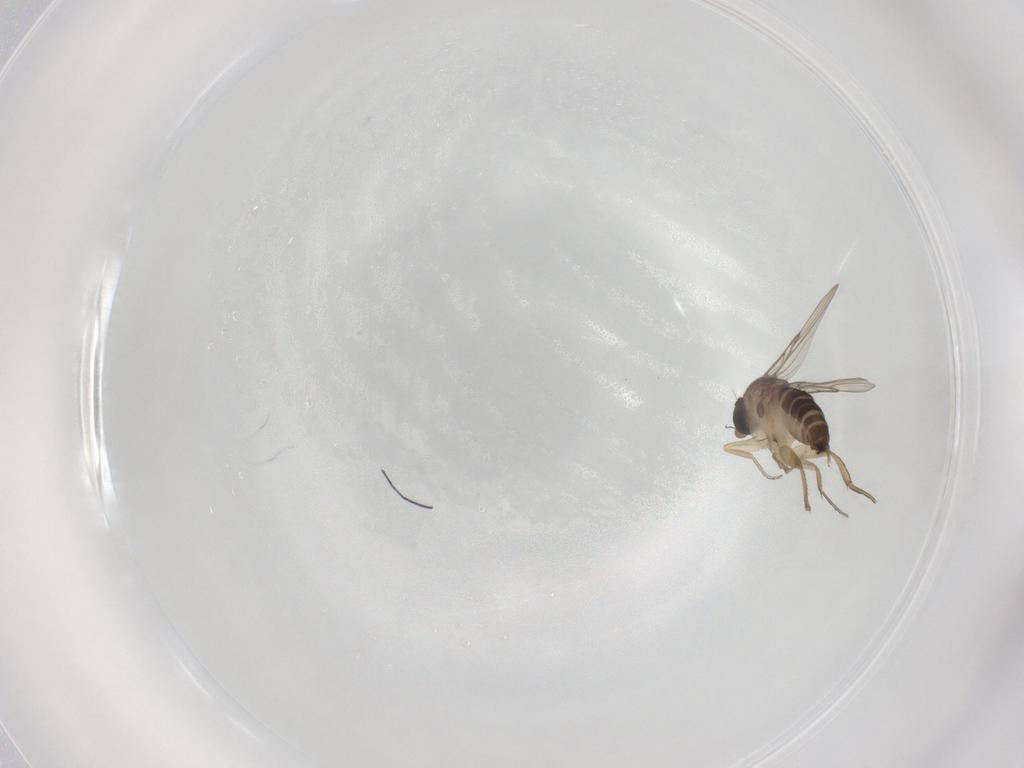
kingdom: Animalia
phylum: Arthropoda
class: Insecta
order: Diptera
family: Phoridae
